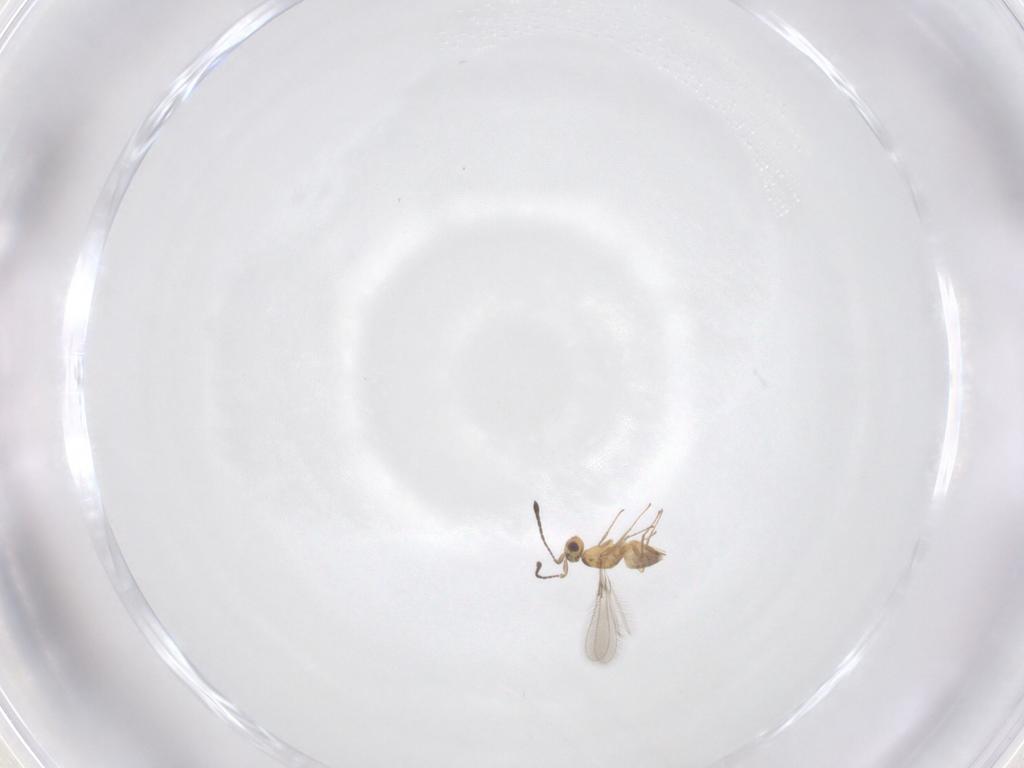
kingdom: Animalia
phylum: Arthropoda
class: Insecta
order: Hymenoptera
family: Mymaridae
